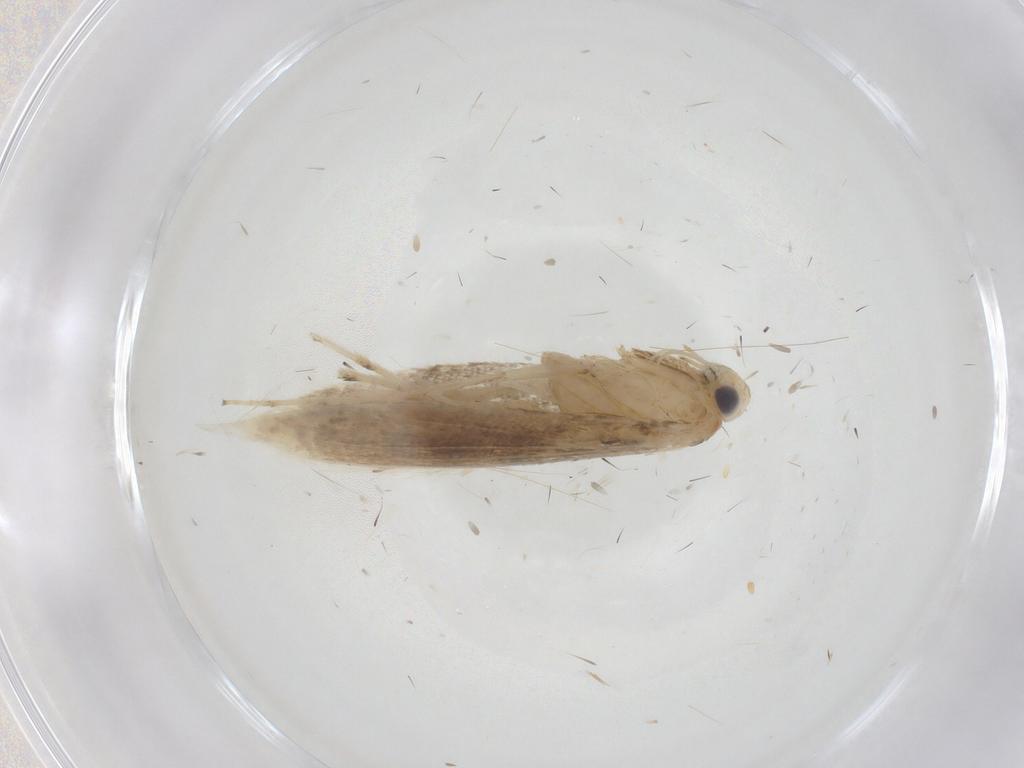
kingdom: Animalia
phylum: Arthropoda
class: Insecta
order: Lepidoptera
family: Gracillariidae
